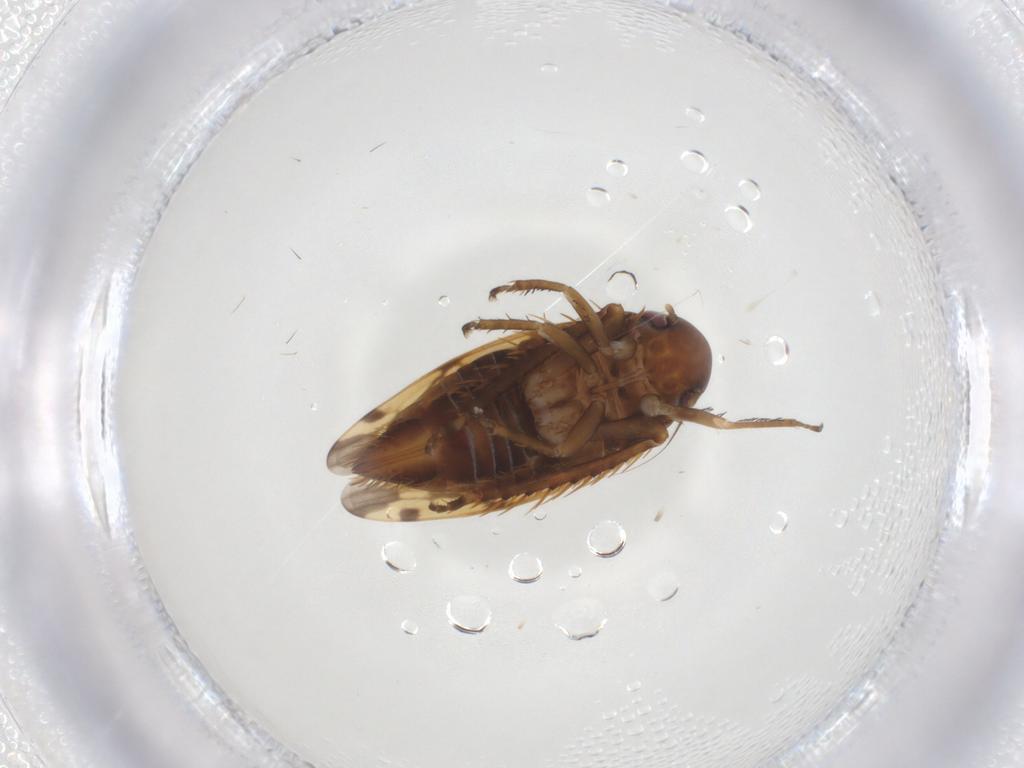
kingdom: Animalia
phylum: Arthropoda
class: Insecta
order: Hemiptera
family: Cicadellidae
